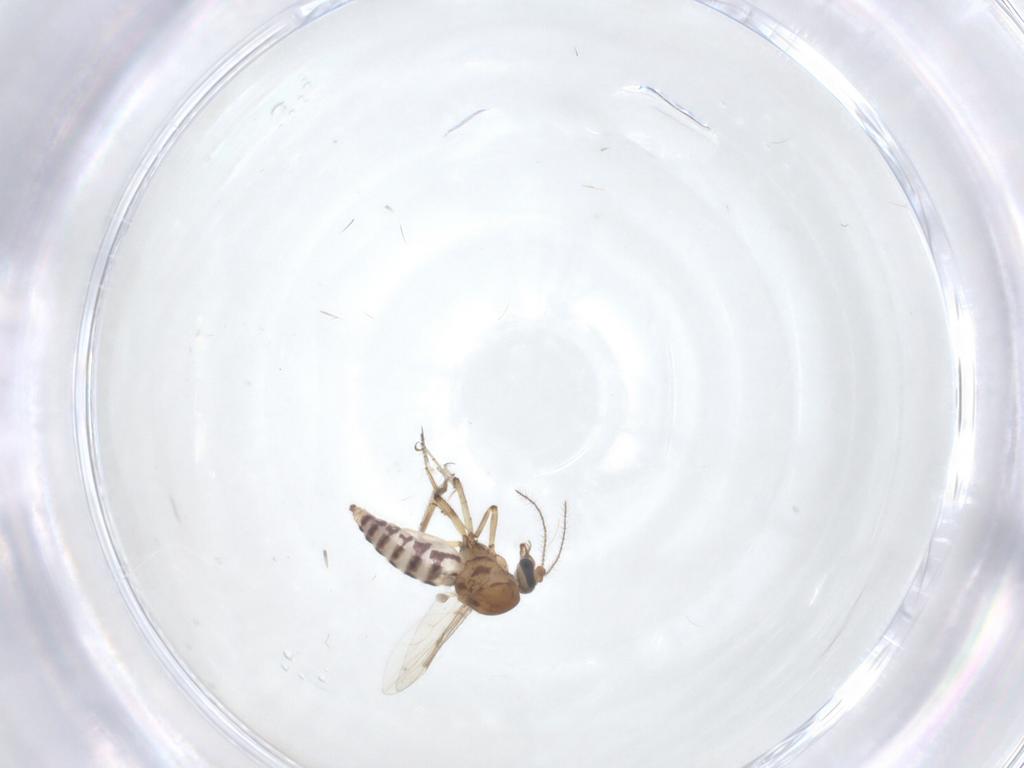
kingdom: Animalia
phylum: Arthropoda
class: Insecta
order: Diptera
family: Ceratopogonidae
